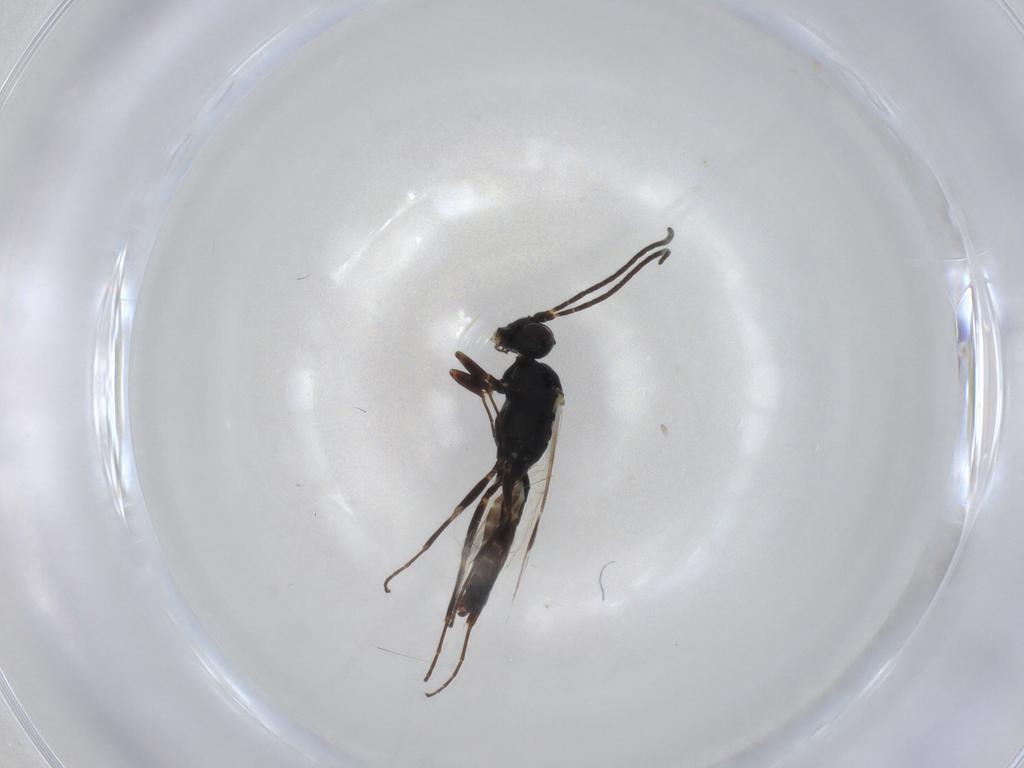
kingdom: Animalia
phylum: Arthropoda
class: Insecta
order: Hymenoptera
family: Ichneumonidae
